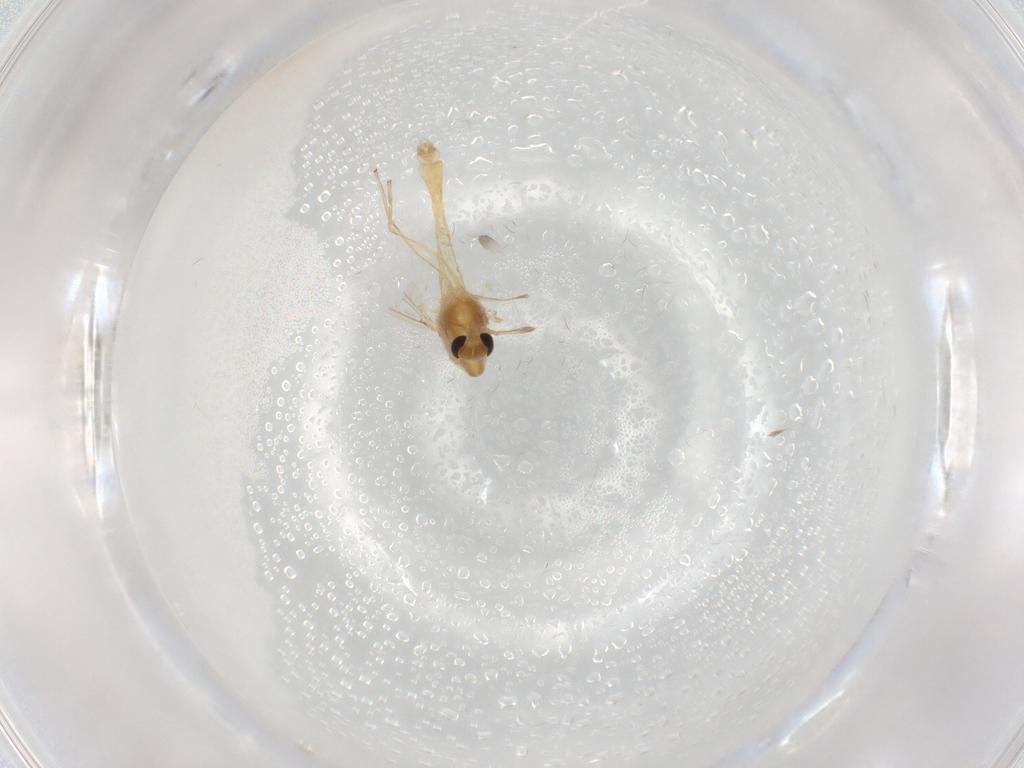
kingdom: Animalia
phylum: Arthropoda
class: Insecta
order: Diptera
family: Chironomidae
